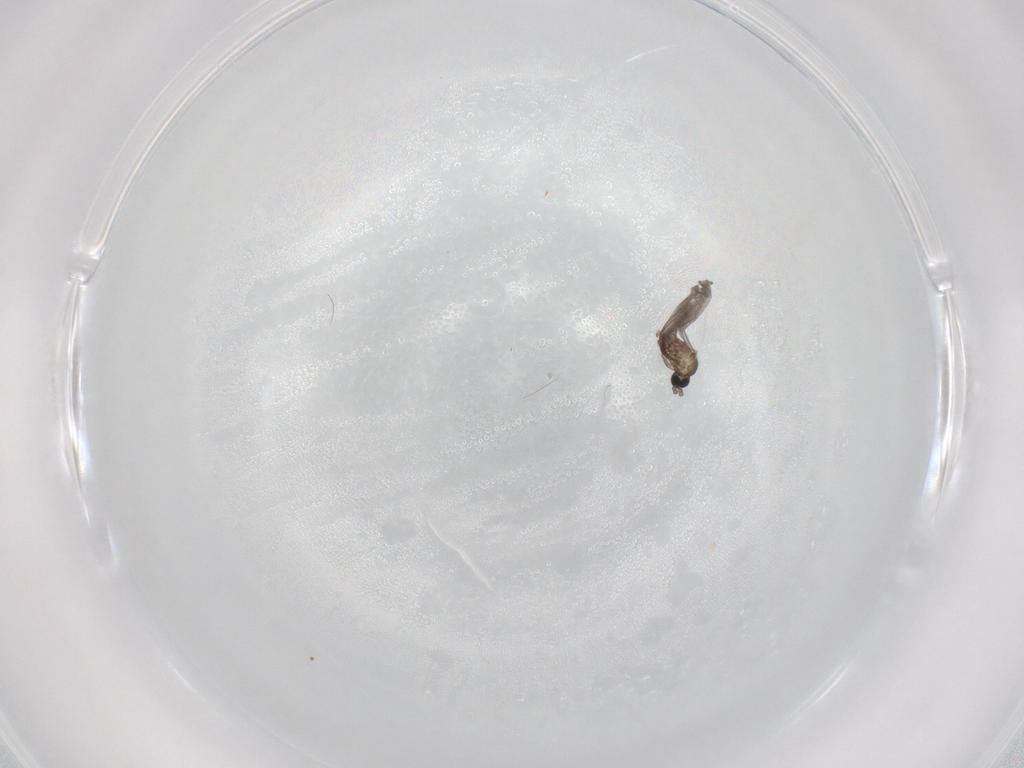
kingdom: Animalia
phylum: Arthropoda
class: Insecta
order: Diptera
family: Sciaridae
